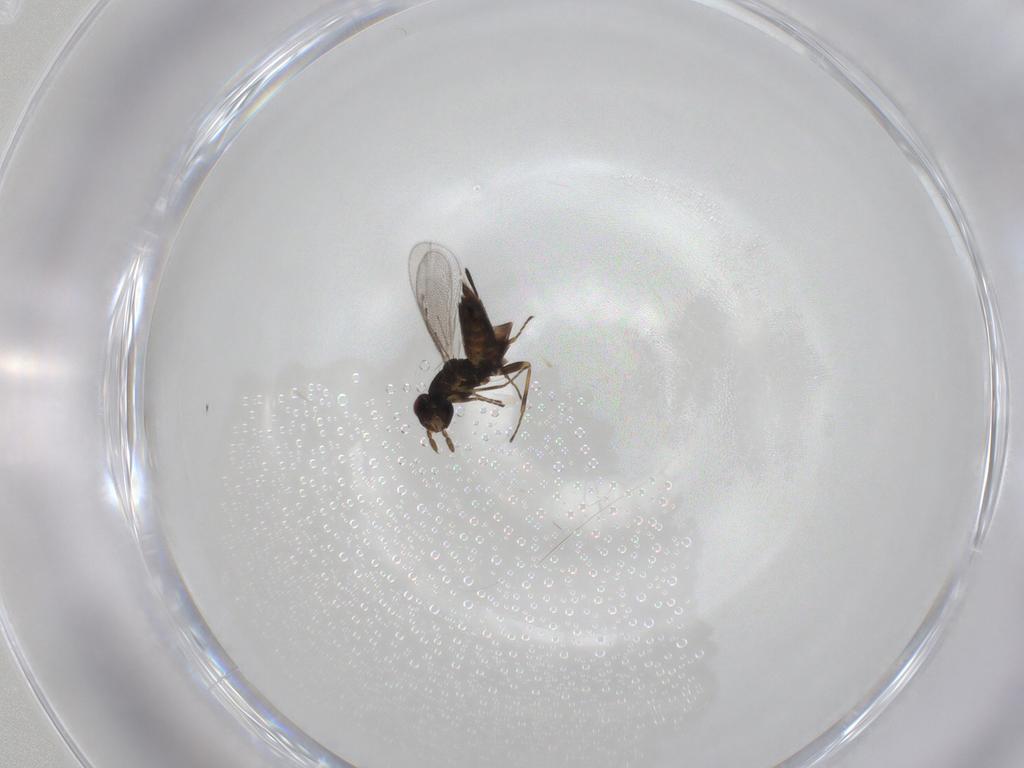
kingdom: Animalia
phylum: Arthropoda
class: Insecta
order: Hymenoptera
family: Eulophidae
